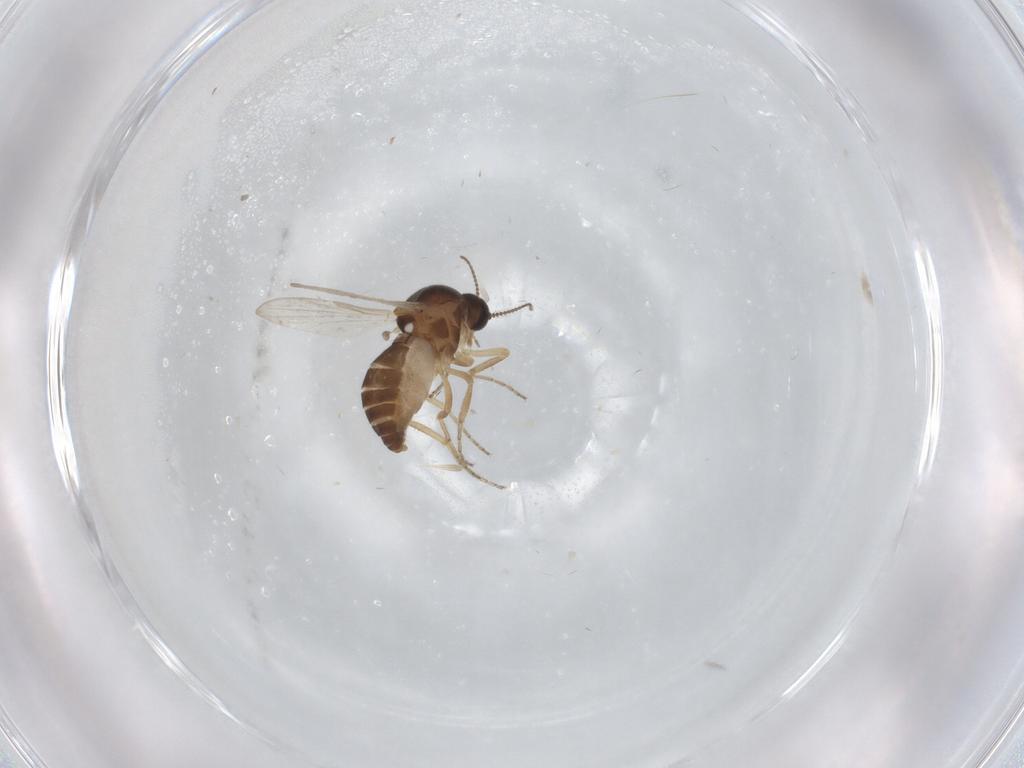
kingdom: Animalia
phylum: Arthropoda
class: Insecta
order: Diptera
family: Ceratopogonidae
